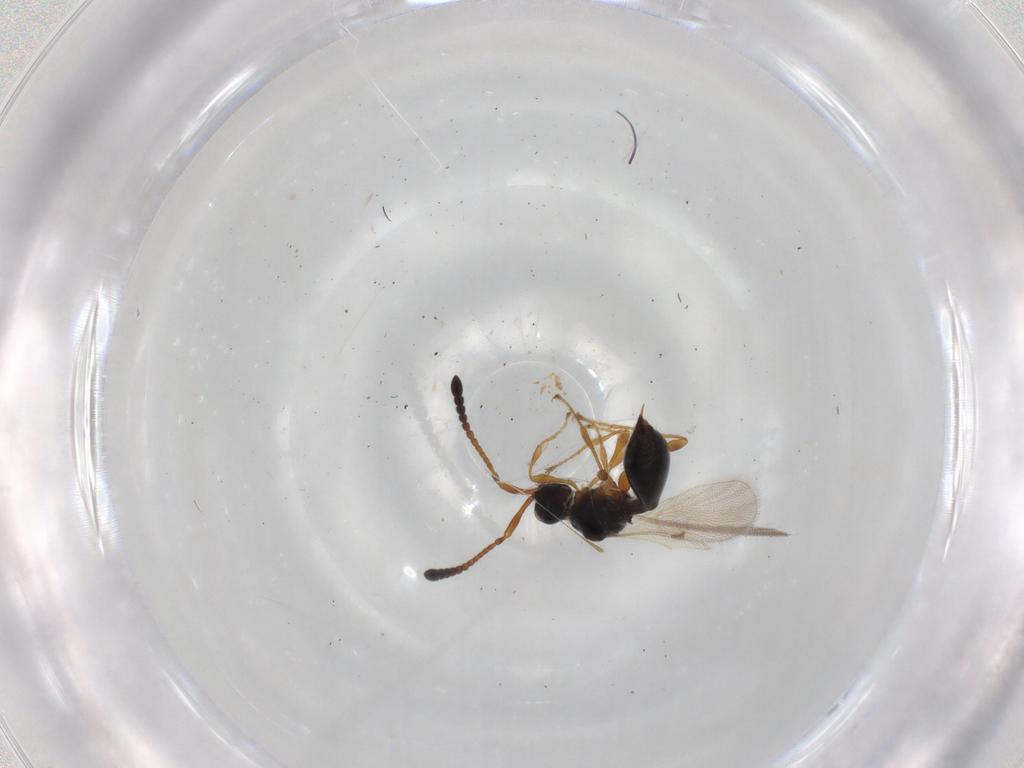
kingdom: Animalia
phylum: Arthropoda
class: Insecta
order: Hymenoptera
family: Diapriidae
